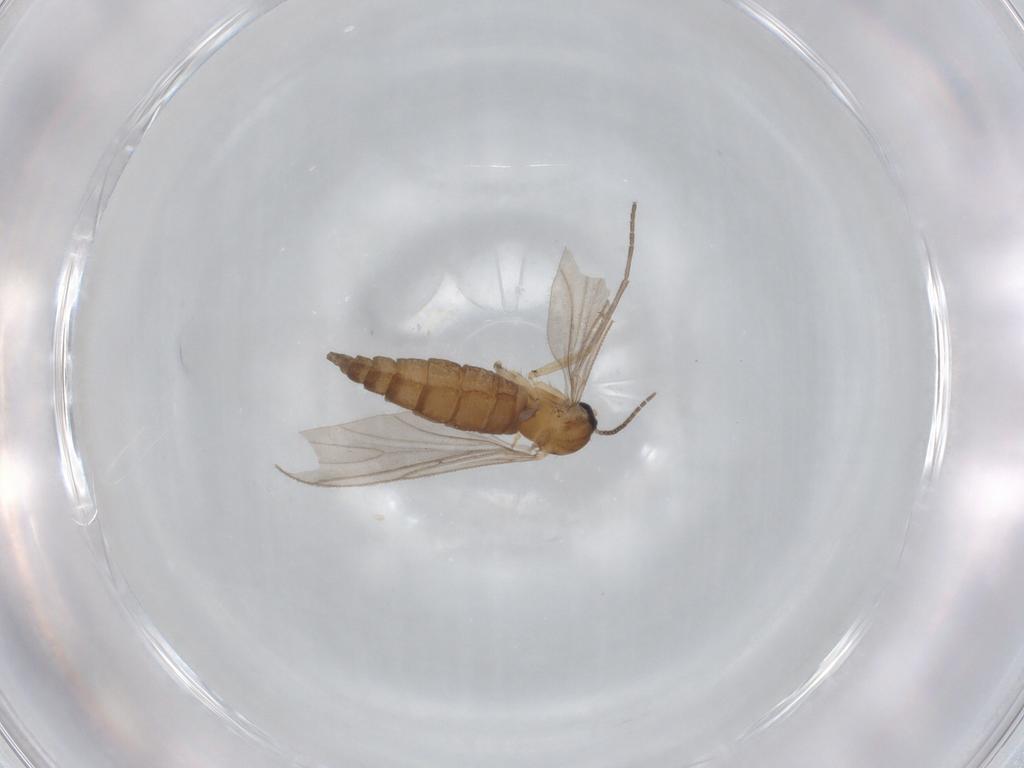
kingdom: Animalia
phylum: Arthropoda
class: Insecta
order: Diptera
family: Sciaridae
